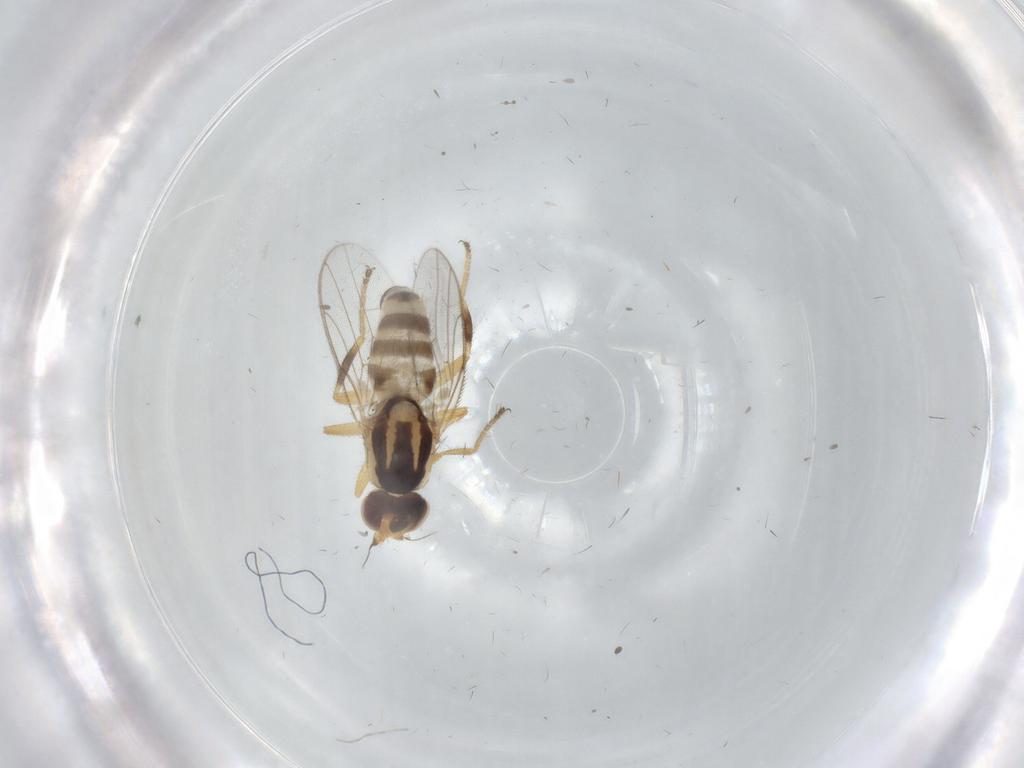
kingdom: Animalia
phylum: Arthropoda
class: Insecta
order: Diptera
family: Chloropidae
